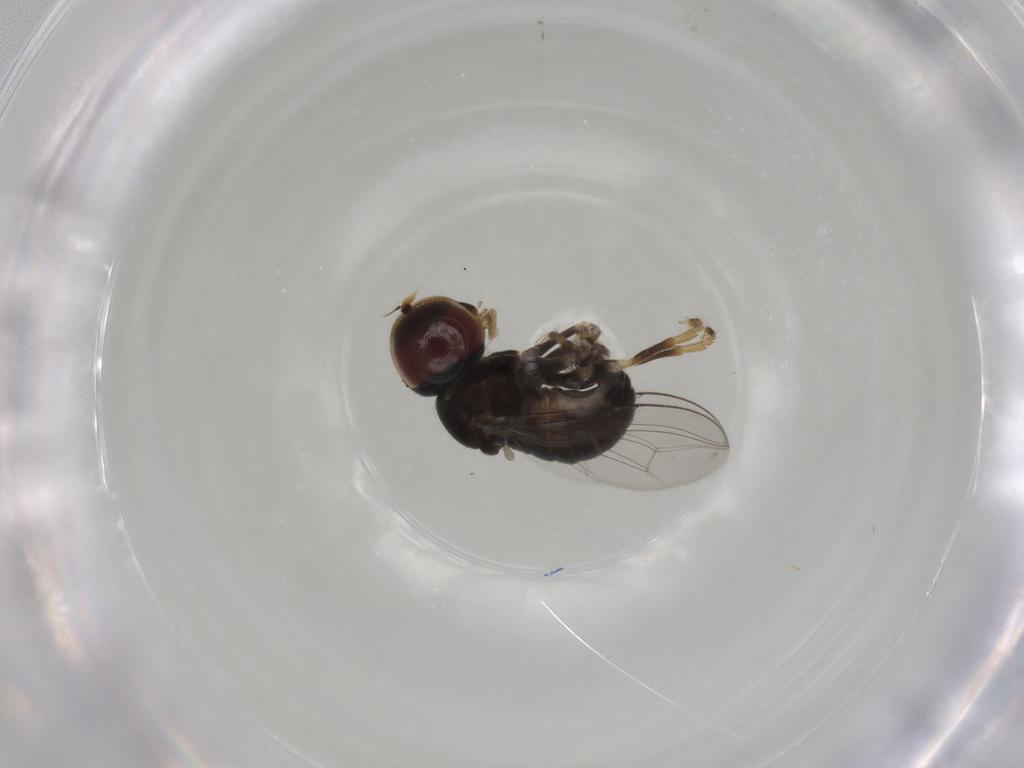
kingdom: Animalia
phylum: Arthropoda
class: Insecta
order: Diptera
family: Pipunculidae
